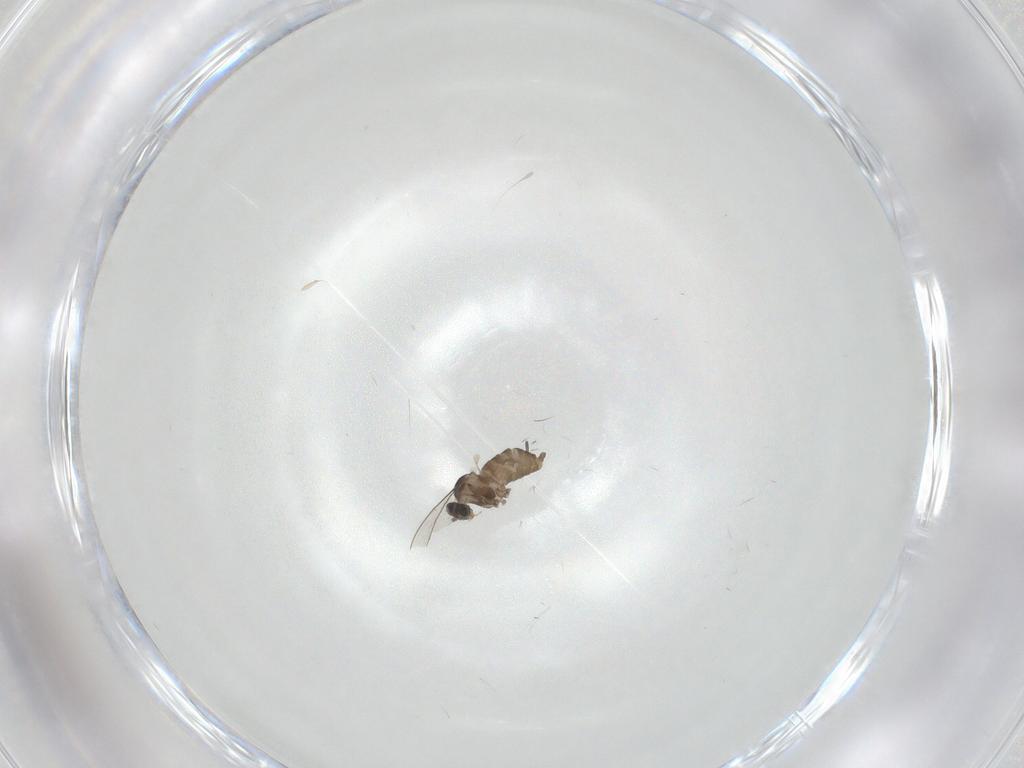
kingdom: Animalia
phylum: Arthropoda
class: Insecta
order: Diptera
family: Cecidomyiidae
